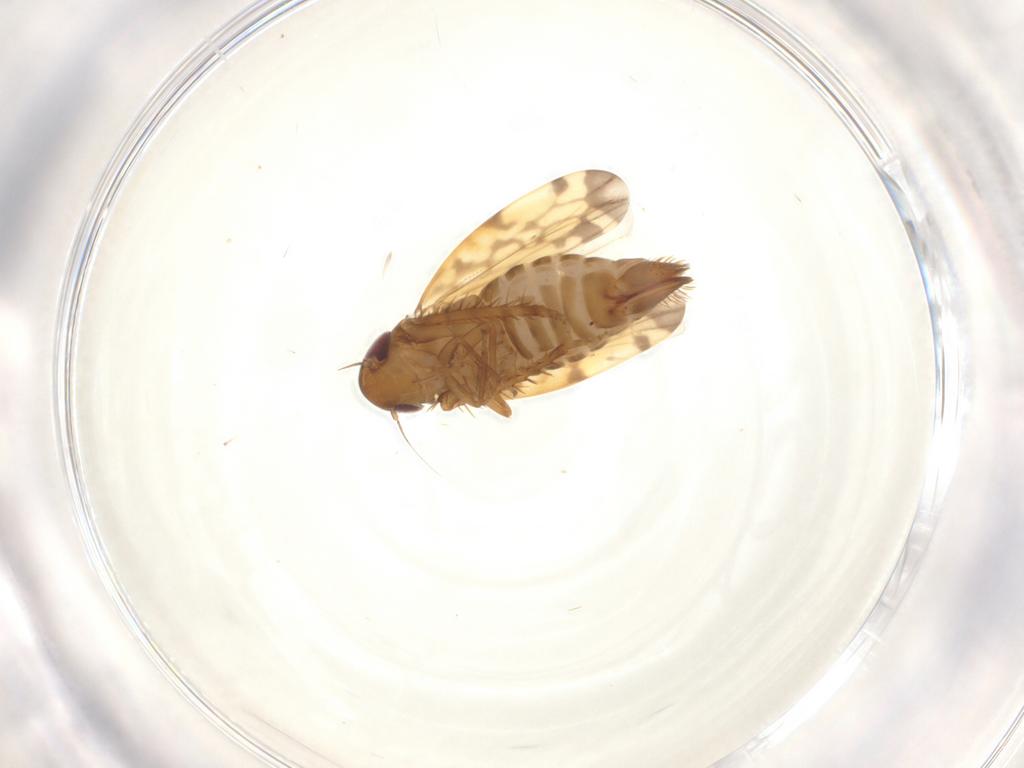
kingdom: Animalia
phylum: Arthropoda
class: Insecta
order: Hemiptera
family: Cicadellidae
